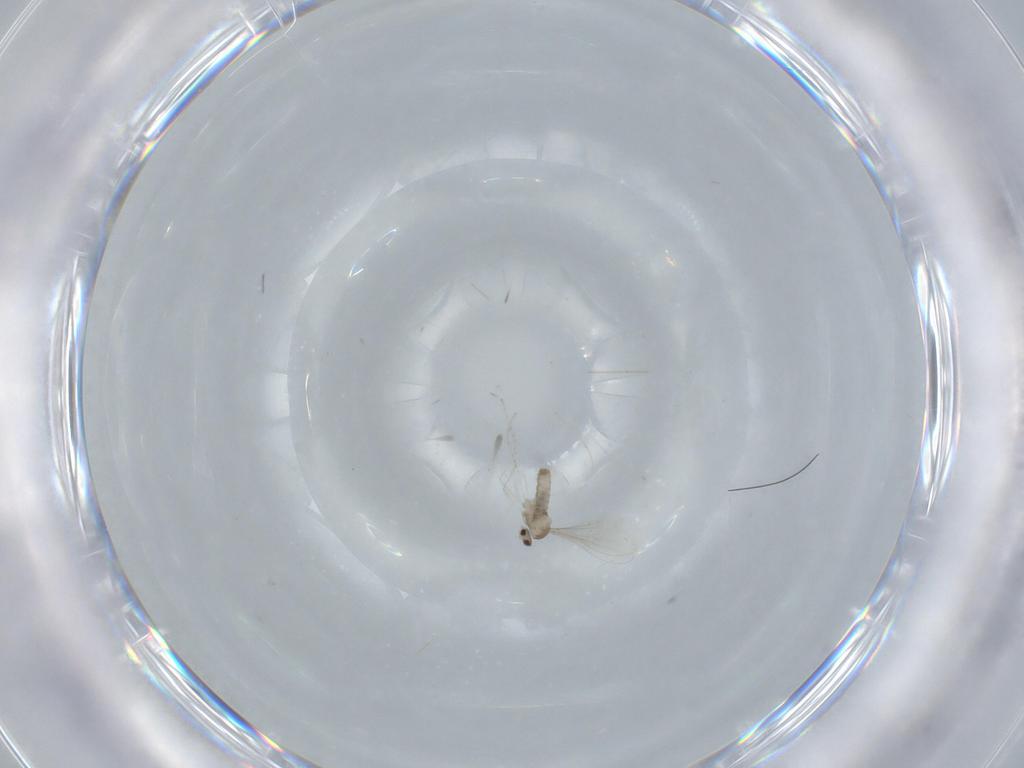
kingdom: Animalia
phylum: Arthropoda
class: Insecta
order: Diptera
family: Cecidomyiidae
